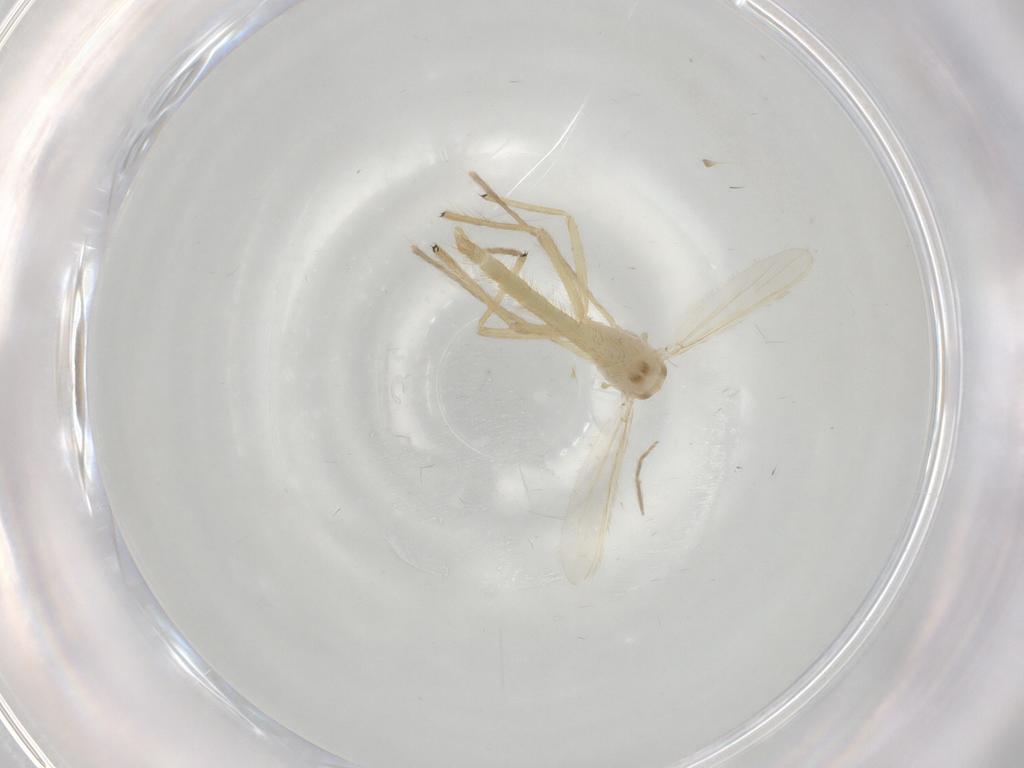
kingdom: Animalia
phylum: Arthropoda
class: Insecta
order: Diptera
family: Chironomidae
